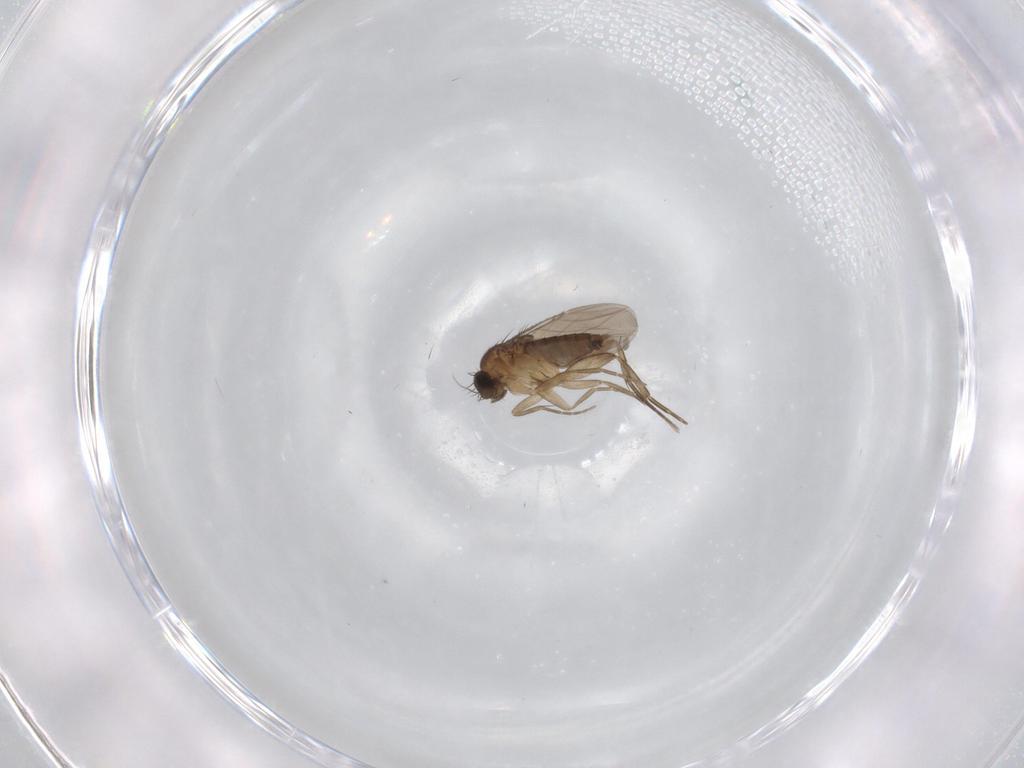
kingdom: Animalia
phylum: Arthropoda
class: Insecta
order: Diptera
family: Phoridae
